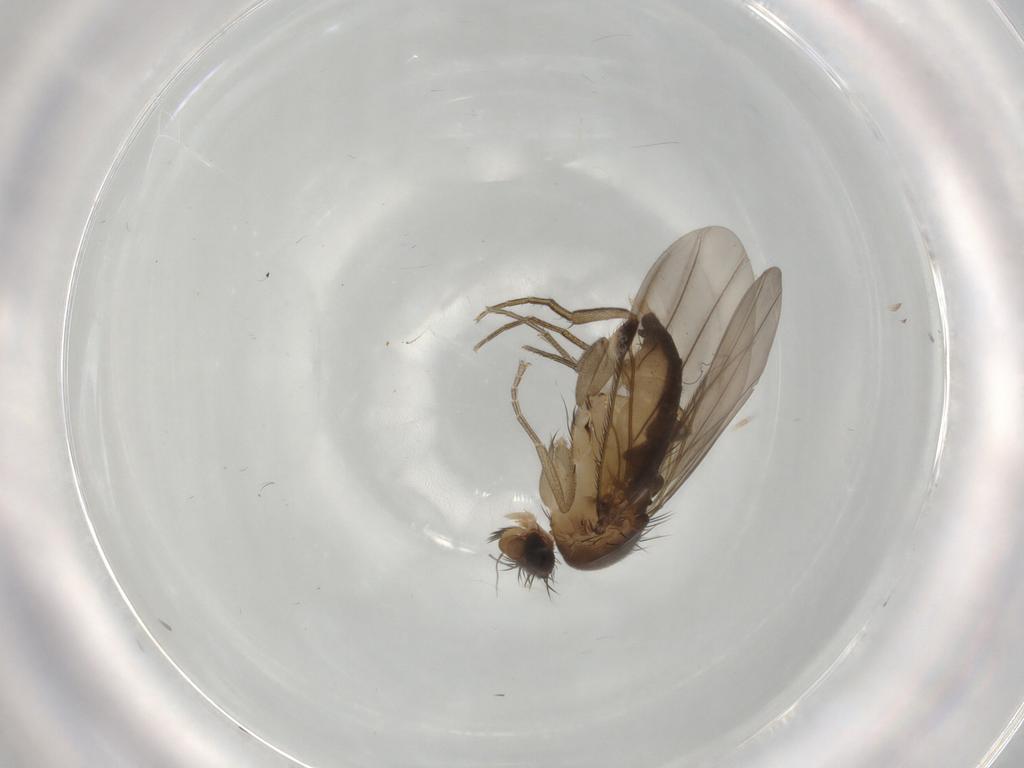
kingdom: Animalia
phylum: Arthropoda
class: Insecta
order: Diptera
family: Phoridae
